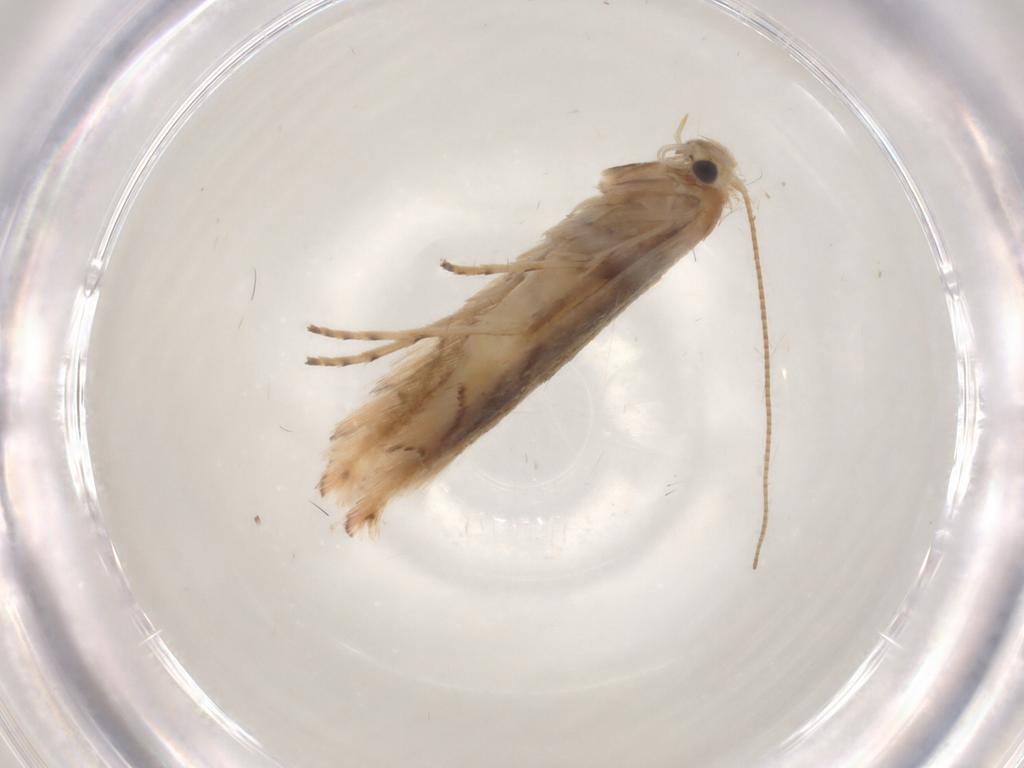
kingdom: Animalia
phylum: Arthropoda
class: Insecta
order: Lepidoptera
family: Gracillariidae
